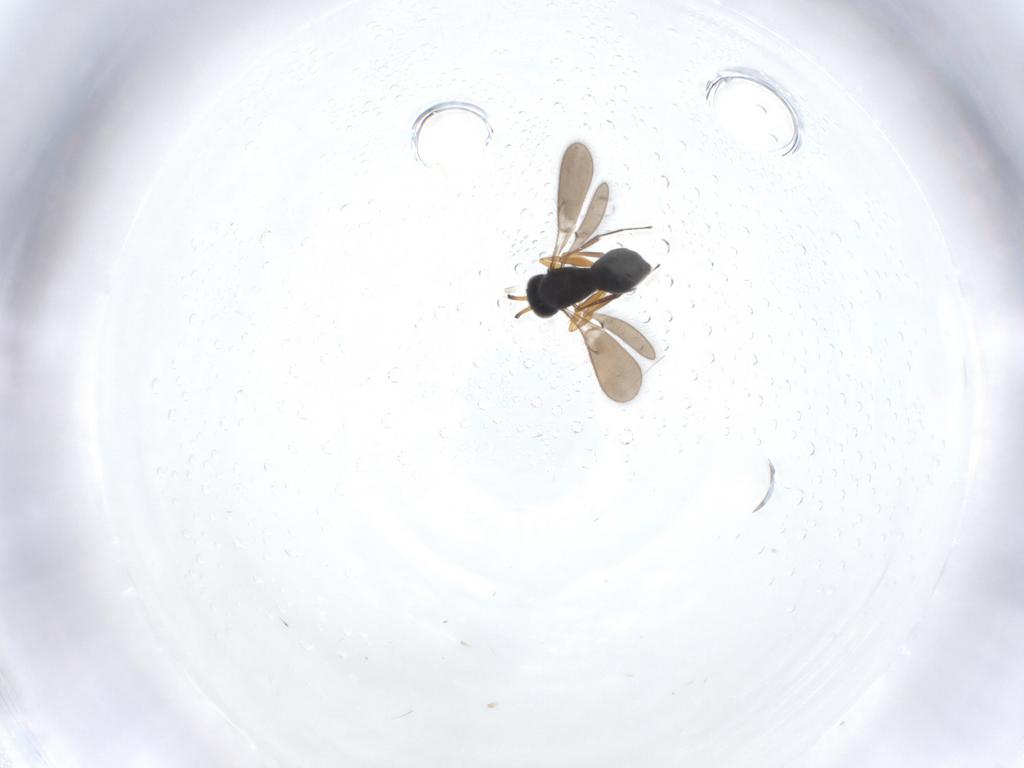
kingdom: Animalia
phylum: Arthropoda
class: Insecta
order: Hymenoptera
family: Scelionidae
